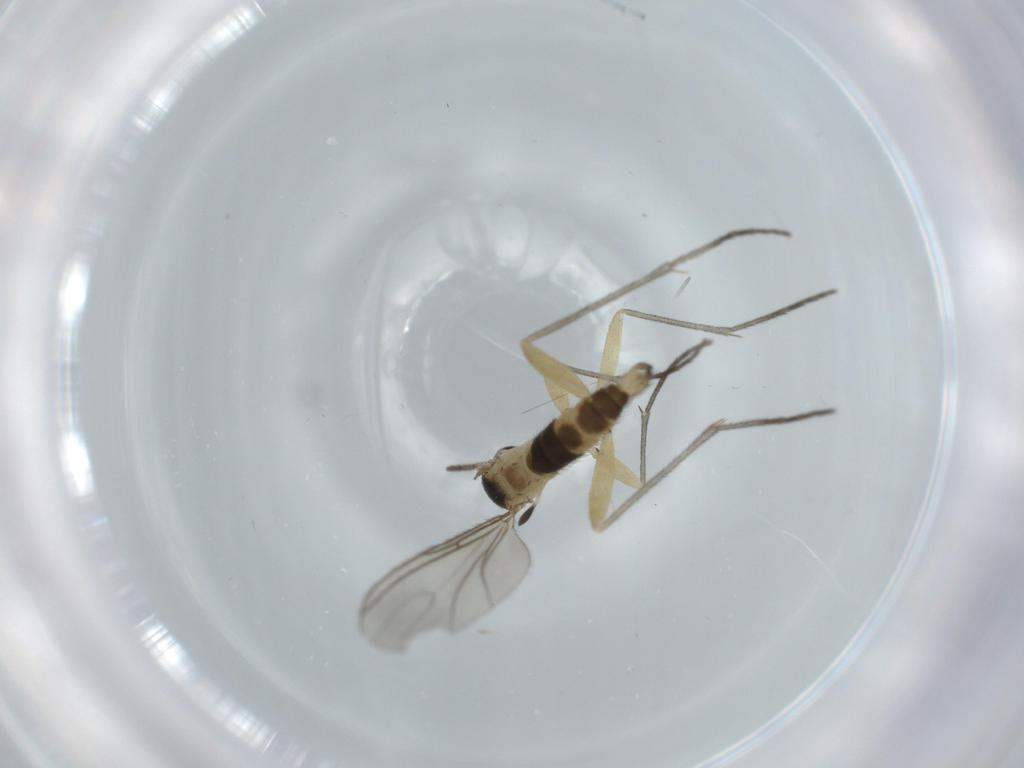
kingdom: Animalia
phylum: Arthropoda
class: Insecta
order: Diptera
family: Sciaridae
